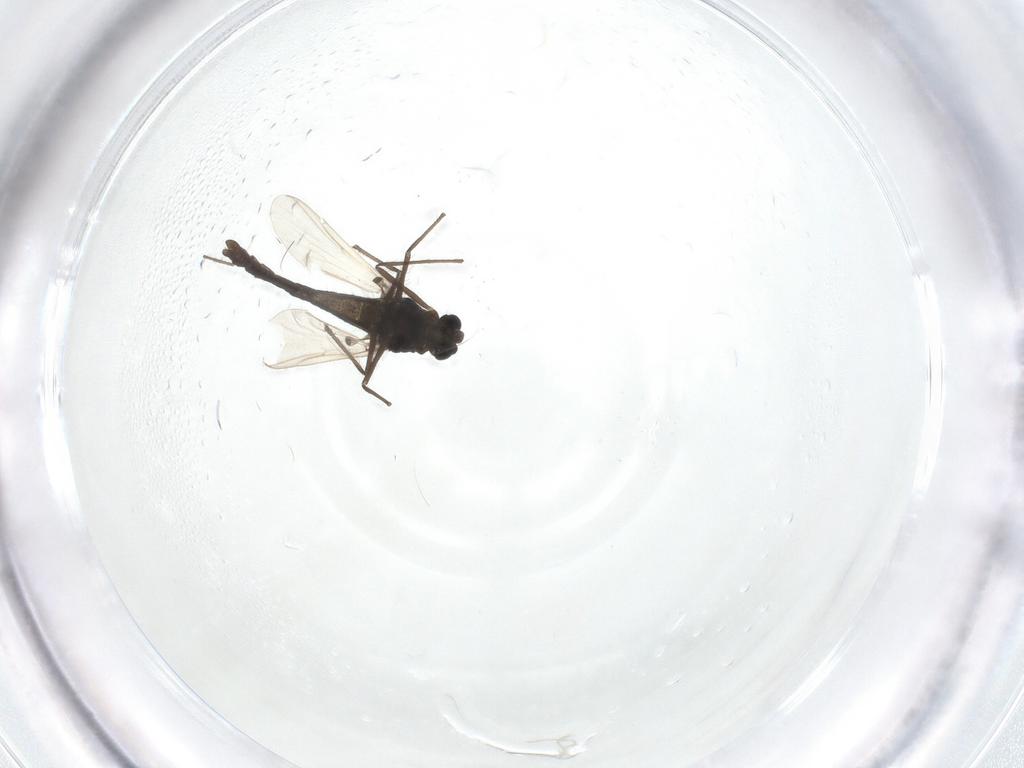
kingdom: Animalia
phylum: Arthropoda
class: Insecta
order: Diptera
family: Chironomidae
